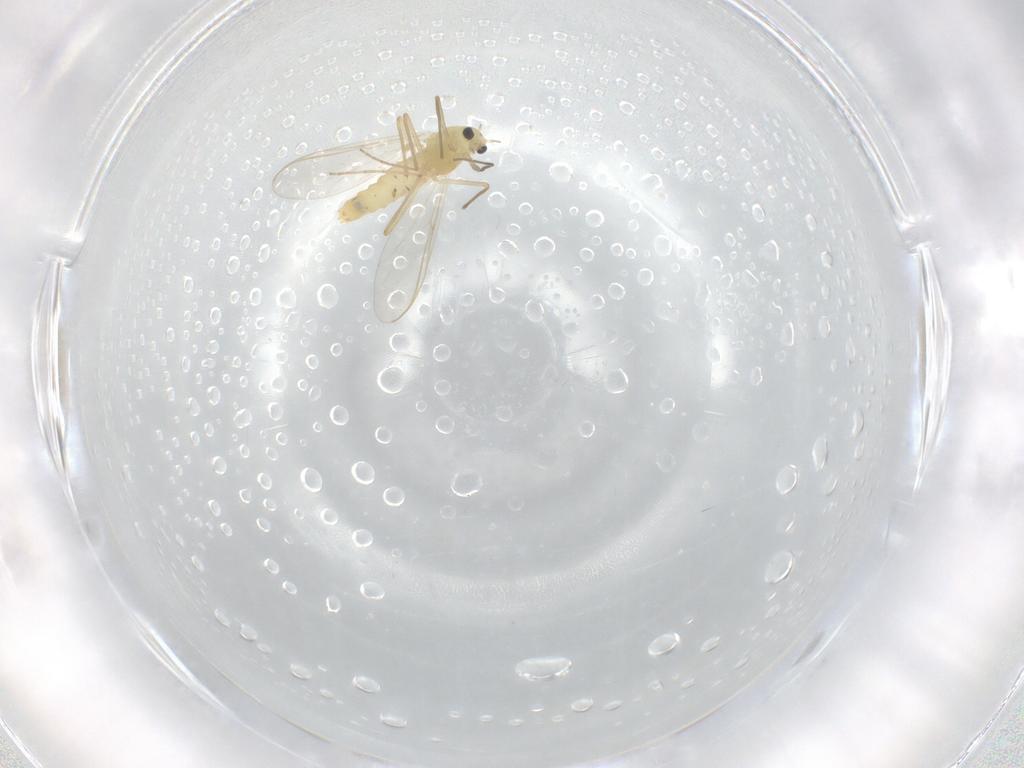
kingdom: Animalia
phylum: Arthropoda
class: Insecta
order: Diptera
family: Chironomidae
